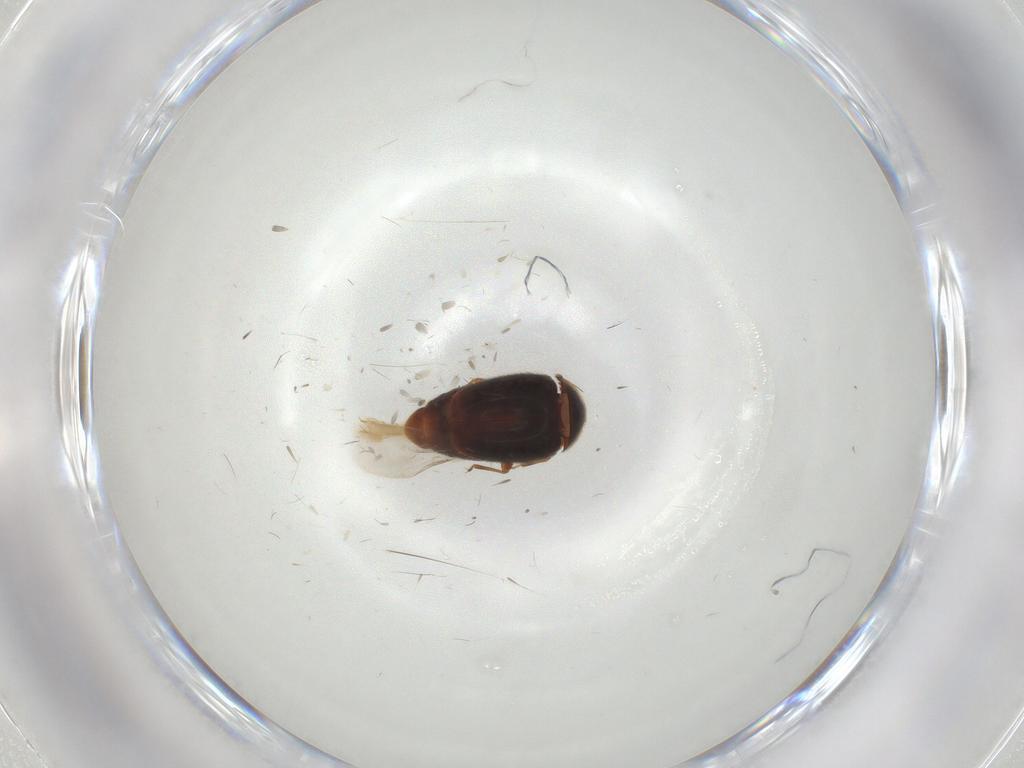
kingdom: Animalia
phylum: Arthropoda
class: Insecta
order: Coleoptera
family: Corylophidae
